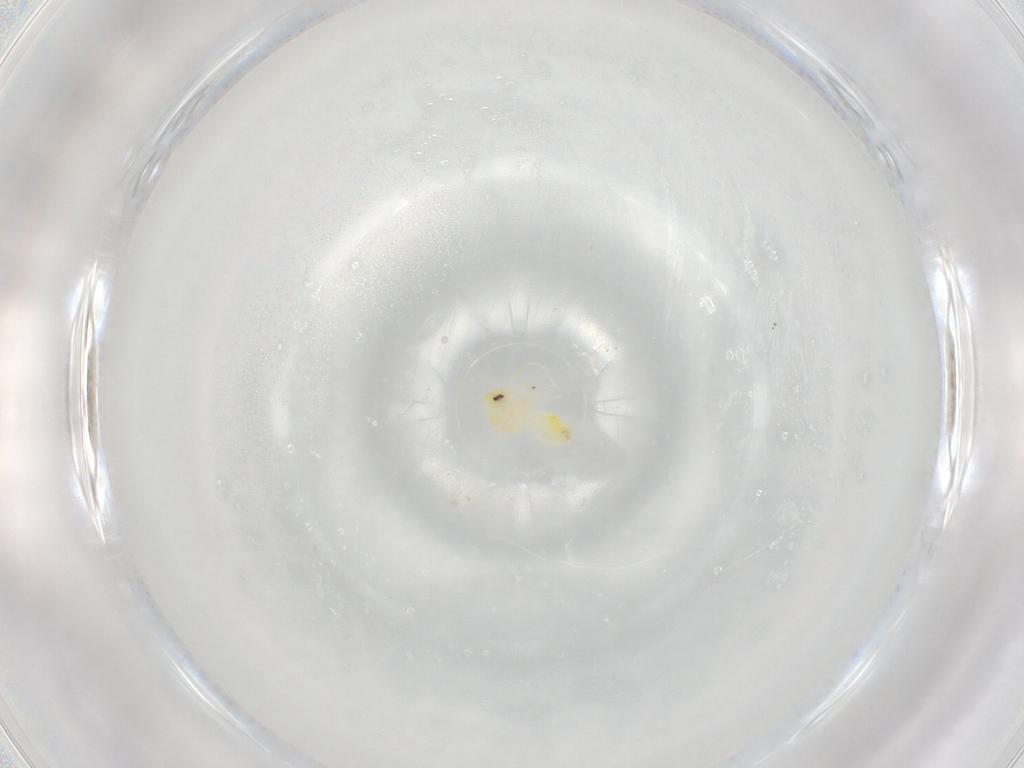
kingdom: Animalia
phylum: Arthropoda
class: Insecta
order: Hemiptera
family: Aleyrodidae
